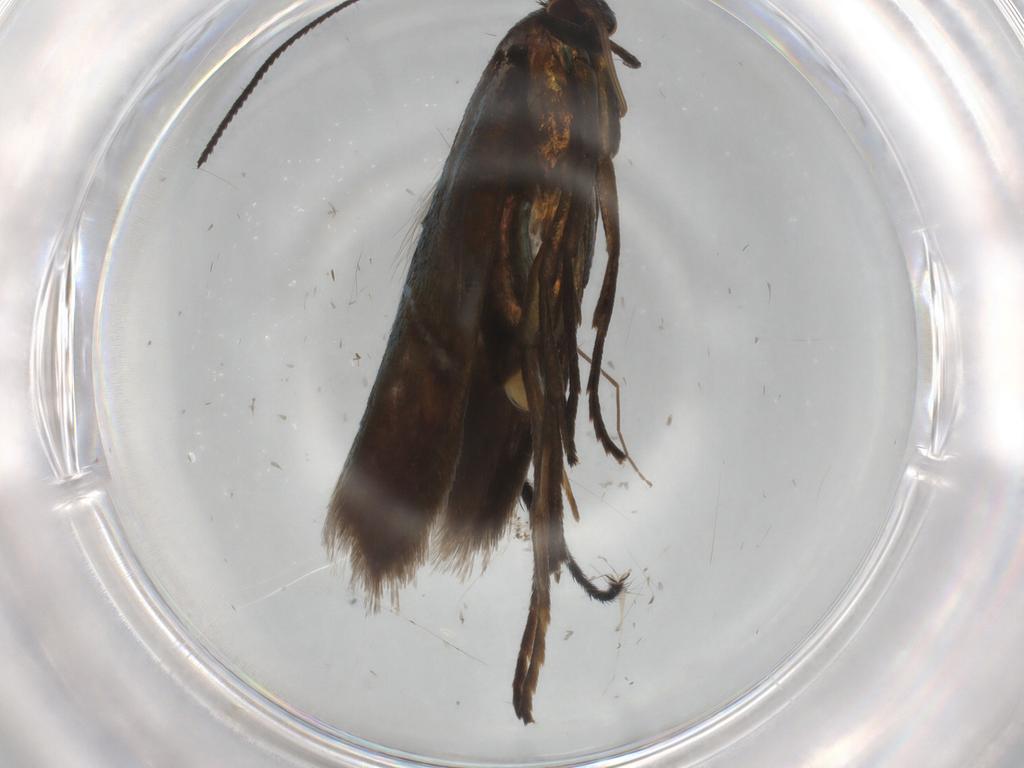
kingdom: Animalia
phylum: Arthropoda
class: Insecta
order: Lepidoptera
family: Argyresthiidae
